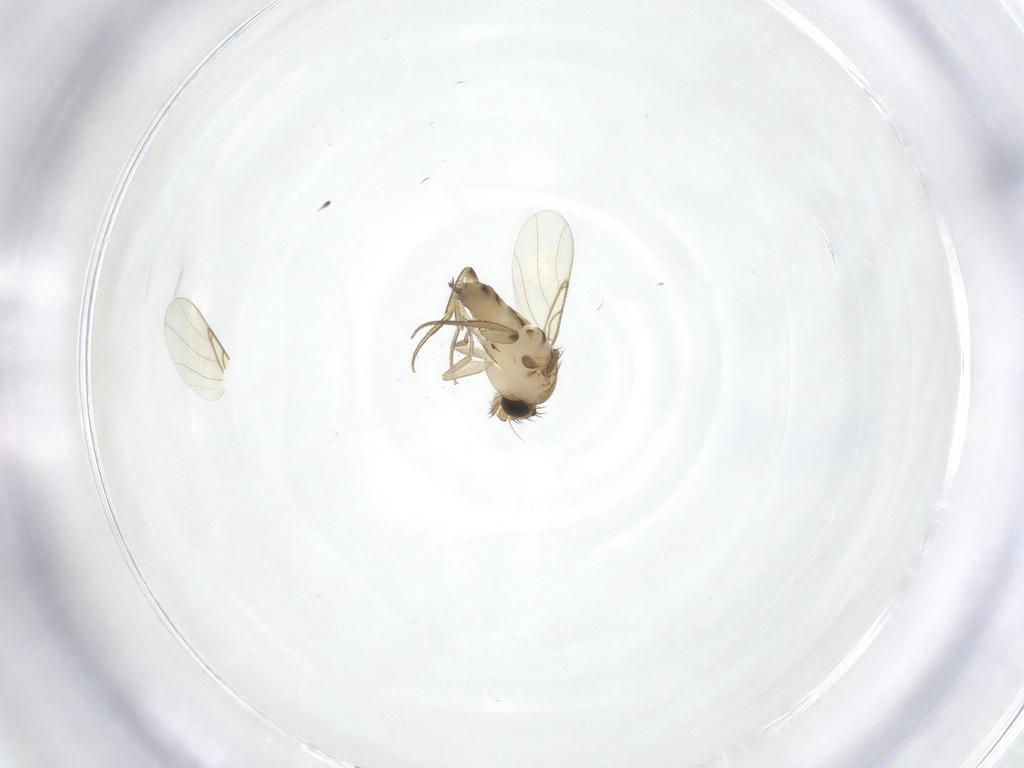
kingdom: Animalia
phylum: Arthropoda
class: Insecta
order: Diptera
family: Phoridae
